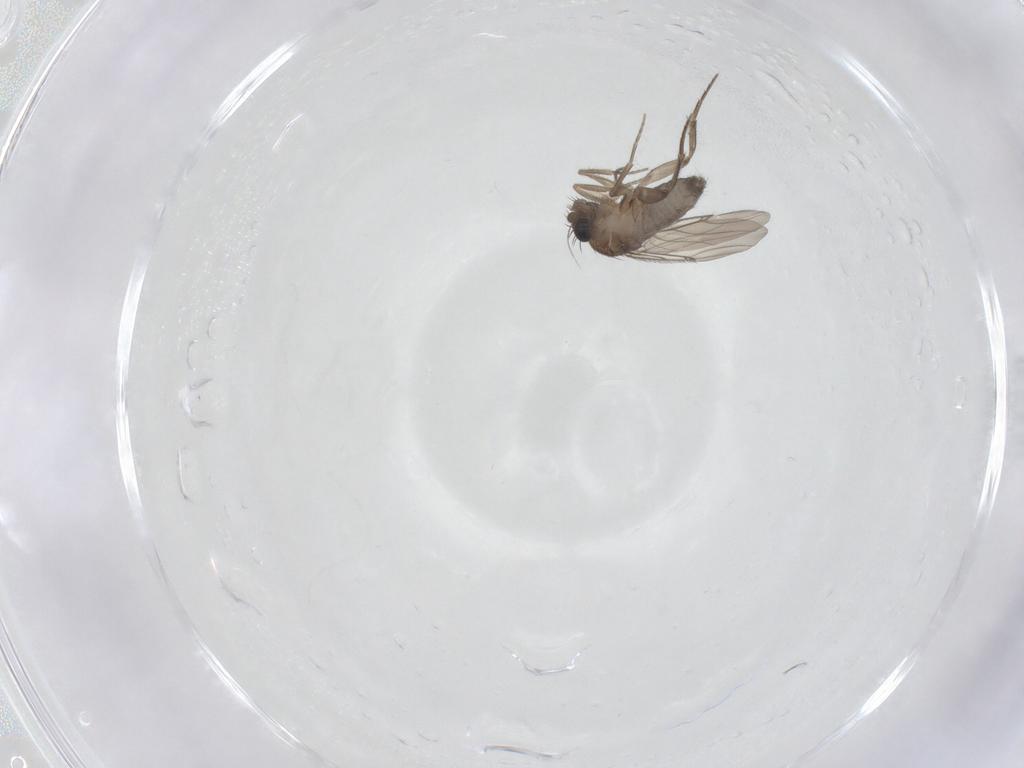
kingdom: Animalia
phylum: Arthropoda
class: Insecta
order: Diptera
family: Phoridae
